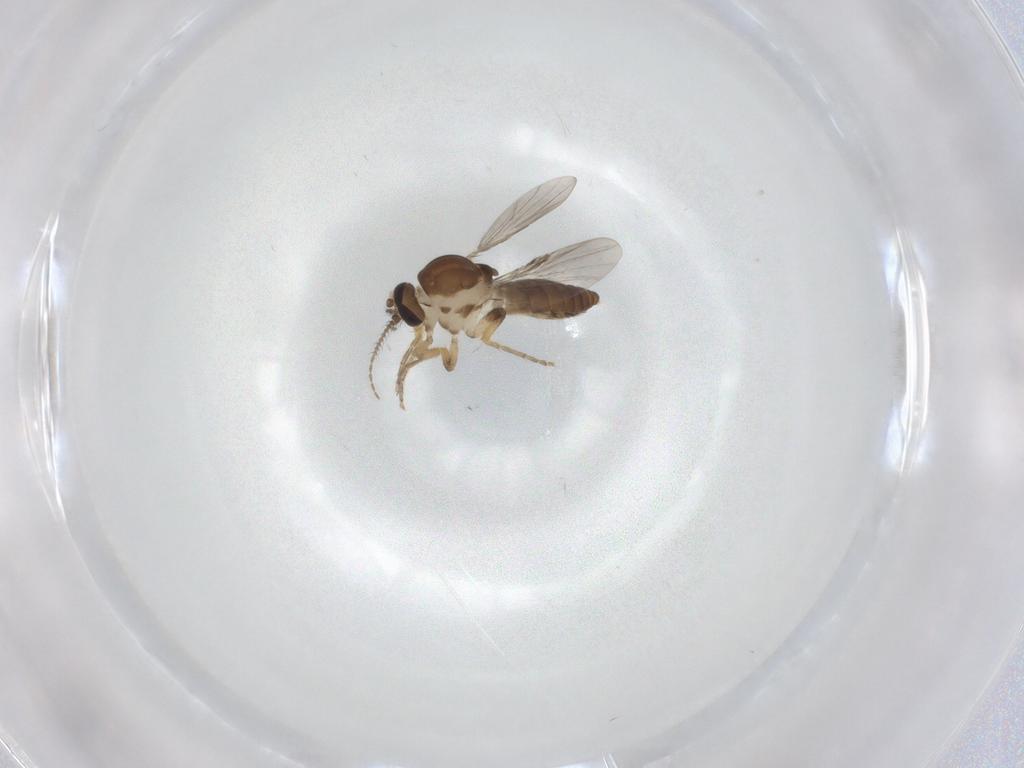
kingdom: Animalia
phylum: Arthropoda
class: Insecta
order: Diptera
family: Ceratopogonidae
